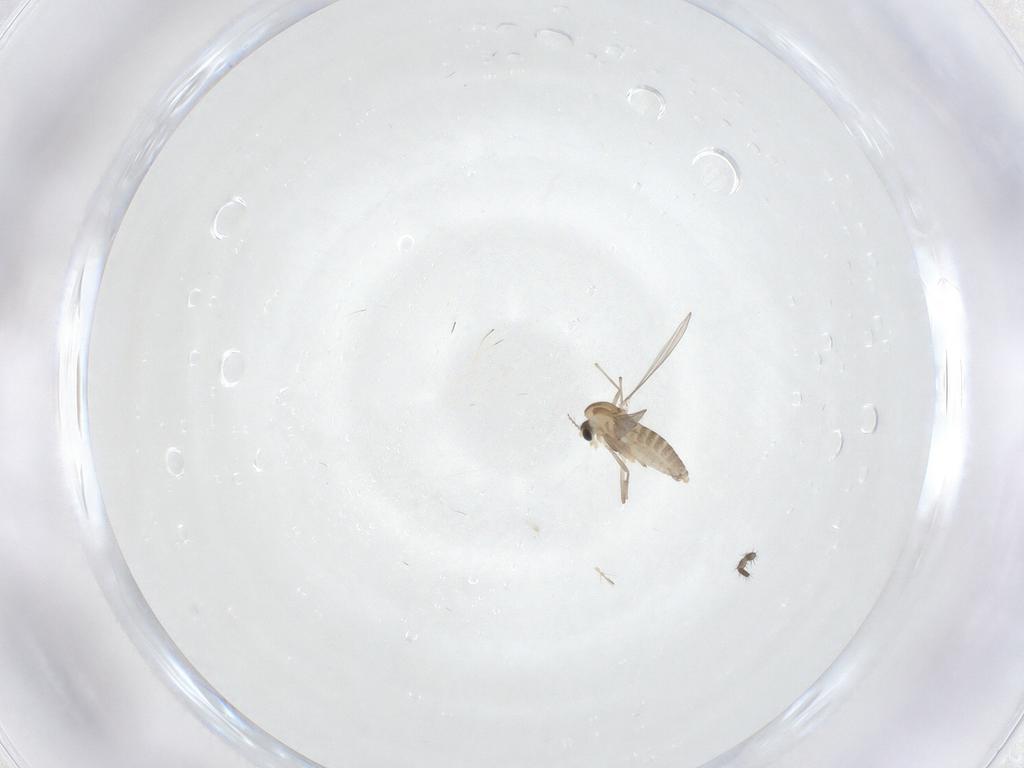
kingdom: Animalia
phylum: Arthropoda
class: Insecta
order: Diptera
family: Chironomidae
